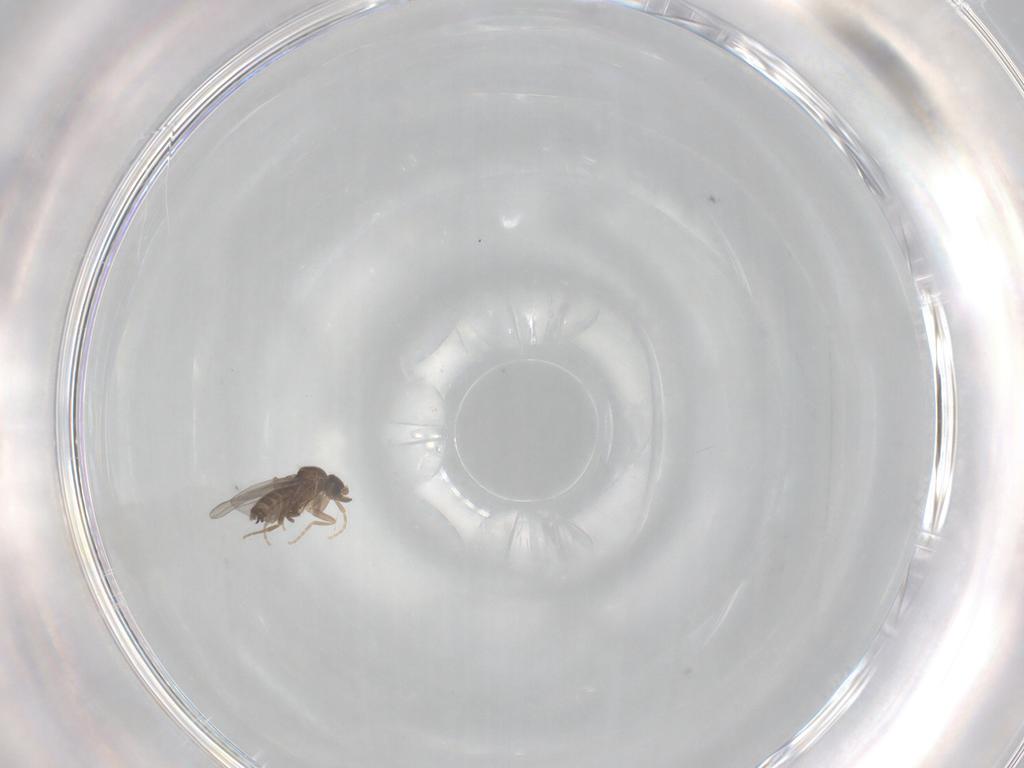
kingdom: Animalia
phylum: Arthropoda
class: Insecta
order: Diptera
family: Phoridae
